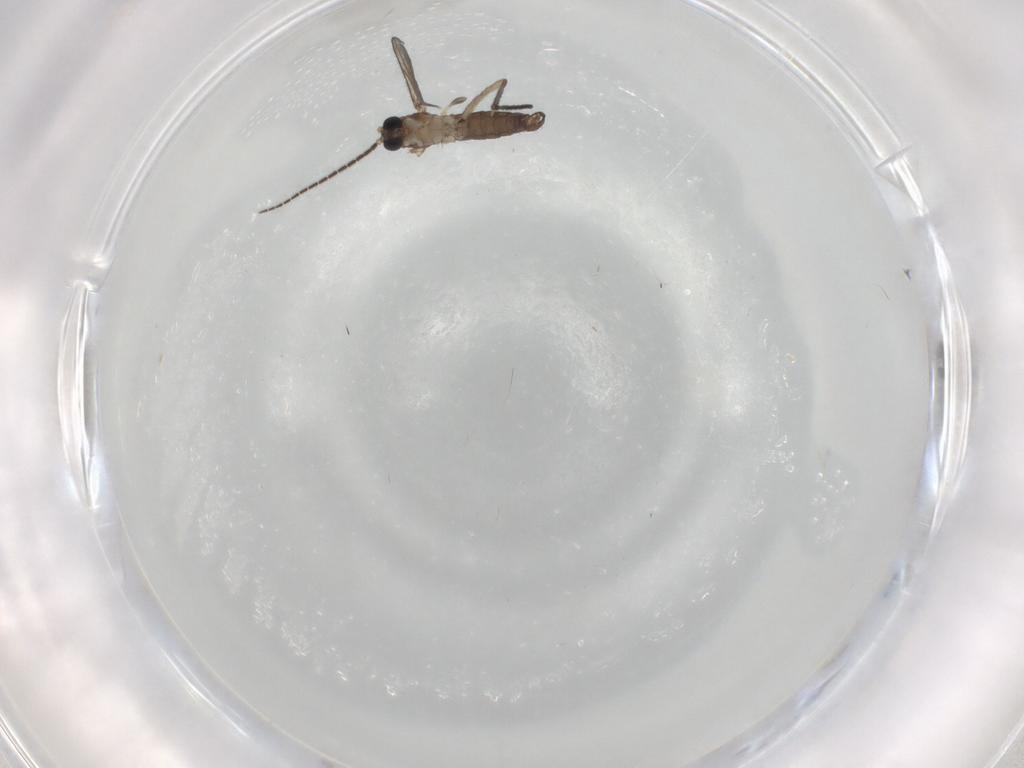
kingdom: Animalia
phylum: Arthropoda
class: Insecta
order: Diptera
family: Sciaridae
